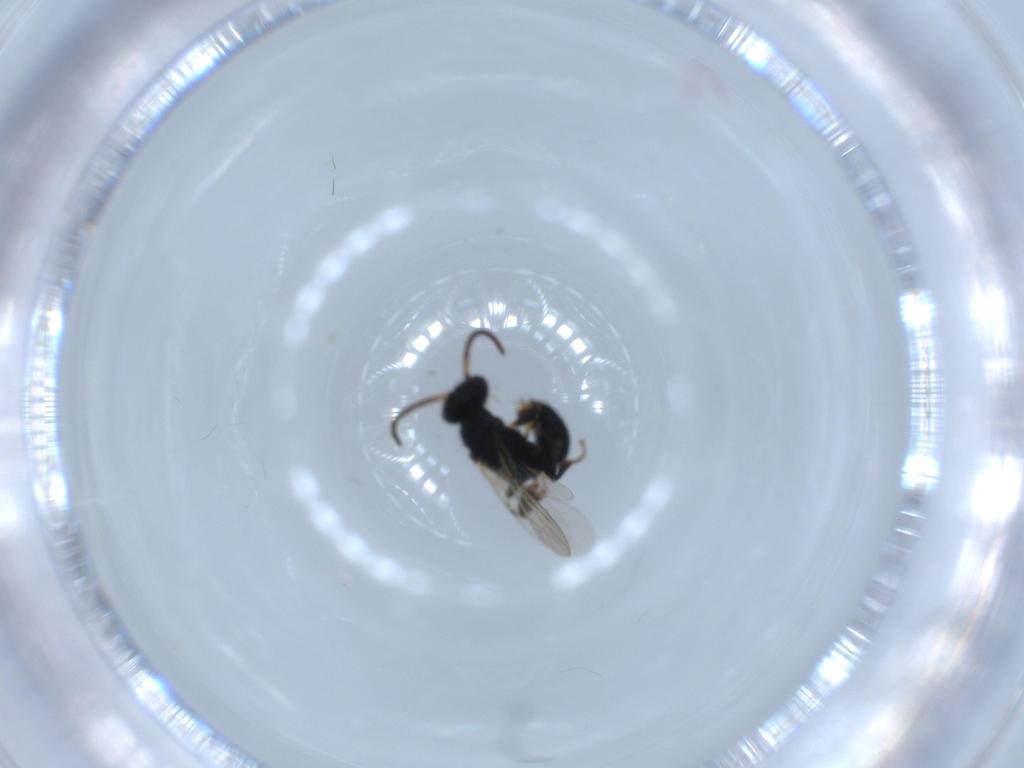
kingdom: Animalia
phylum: Arthropoda
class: Insecta
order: Hymenoptera
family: Bethylidae
